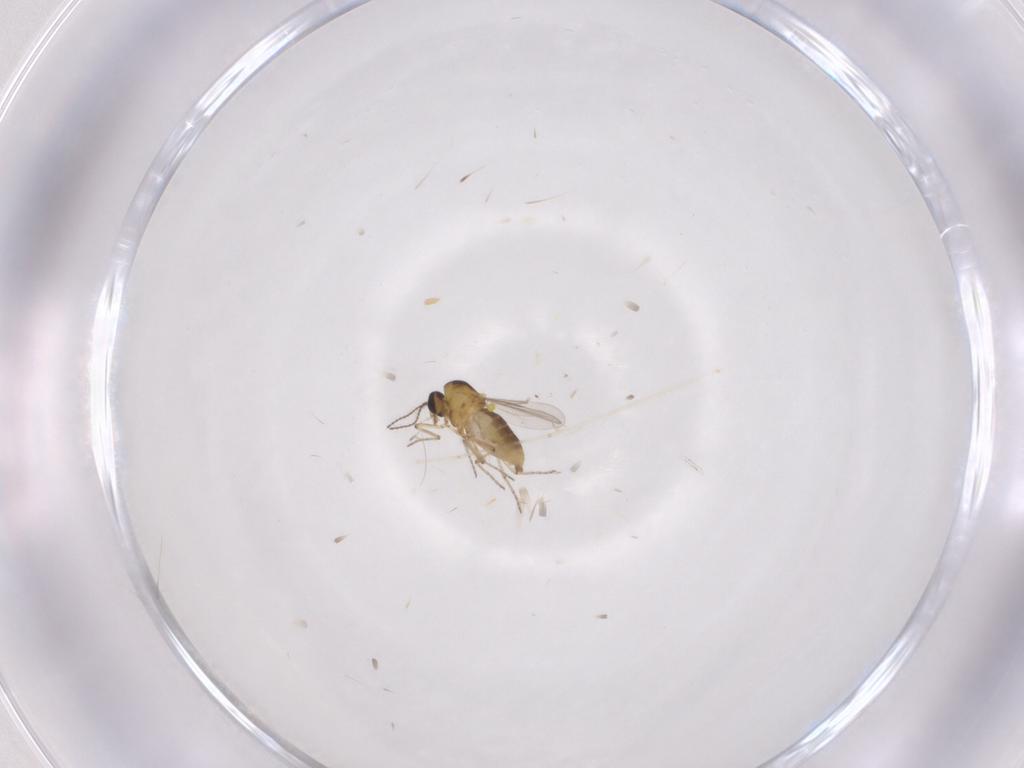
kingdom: Animalia
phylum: Arthropoda
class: Insecta
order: Diptera
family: Ceratopogonidae
